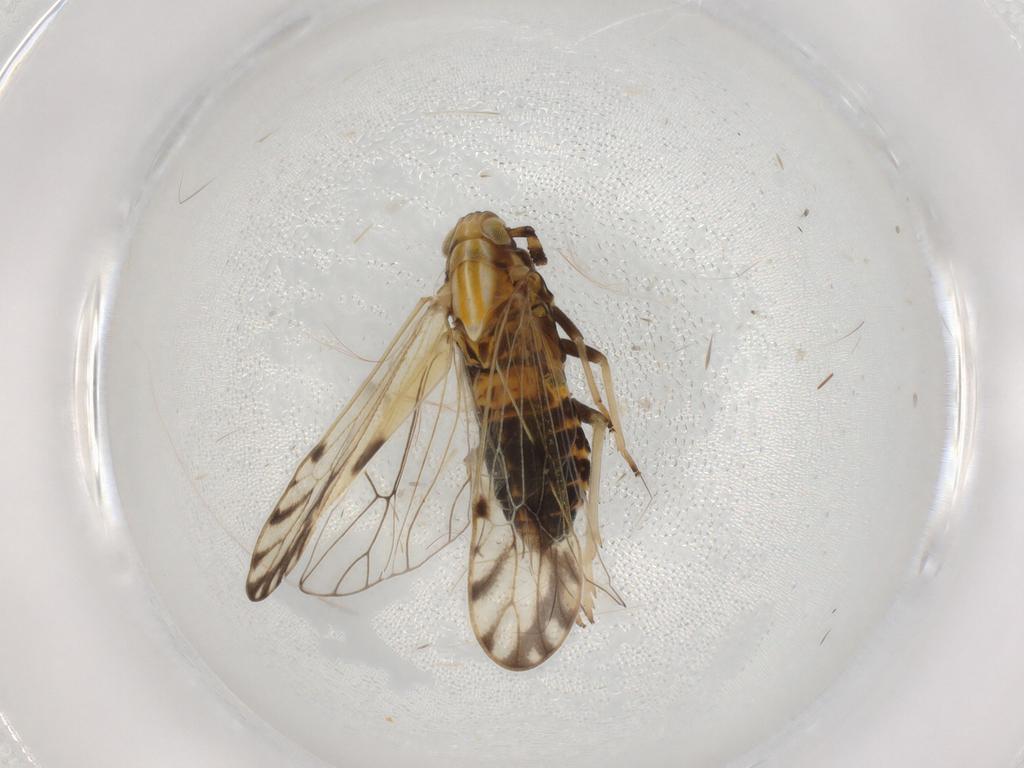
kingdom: Animalia
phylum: Arthropoda
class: Insecta
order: Hemiptera
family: Delphacidae
